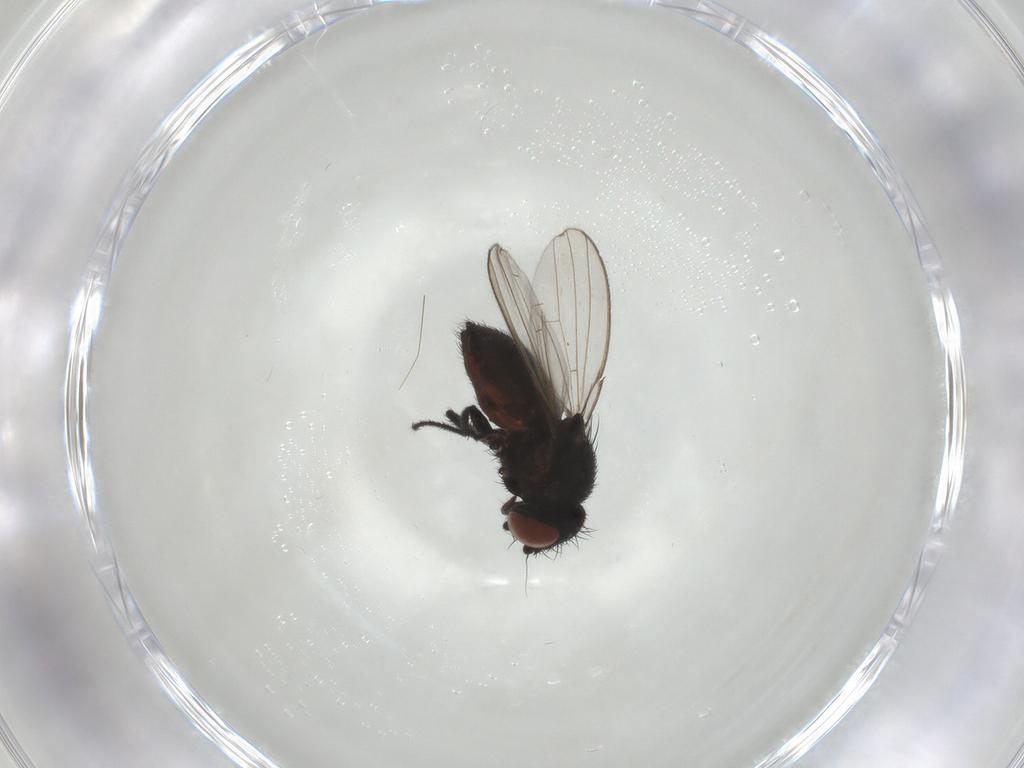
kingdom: Animalia
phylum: Arthropoda
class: Insecta
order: Diptera
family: Milichiidae
